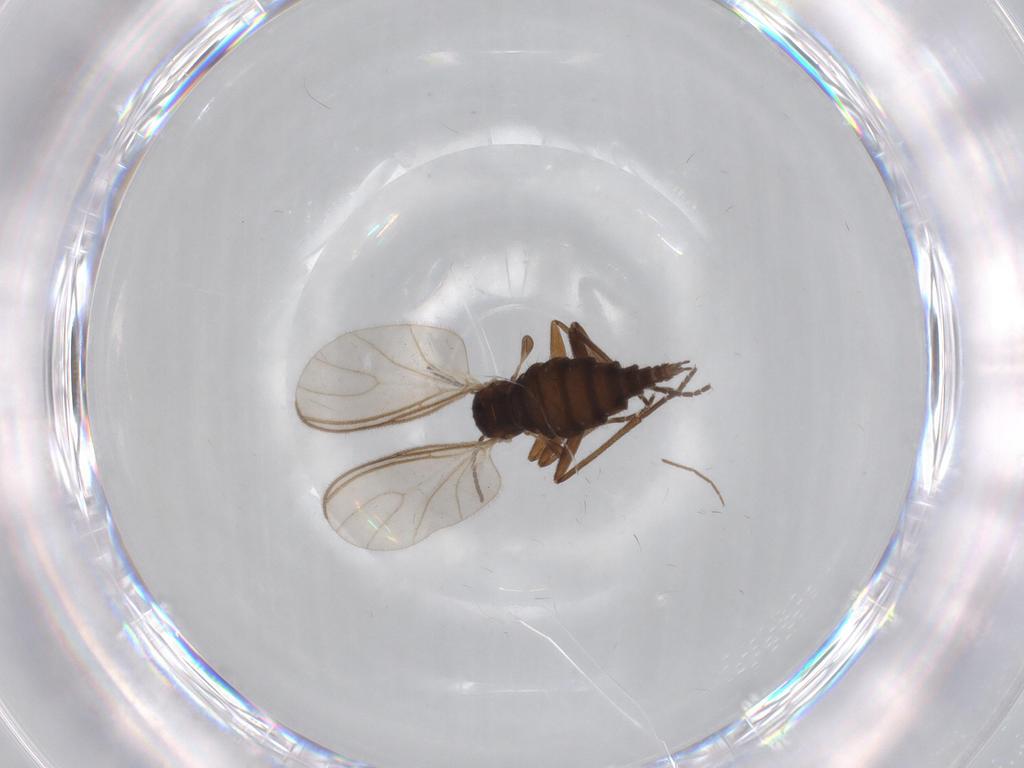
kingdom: Animalia
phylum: Arthropoda
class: Insecta
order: Diptera
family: Sciaridae
